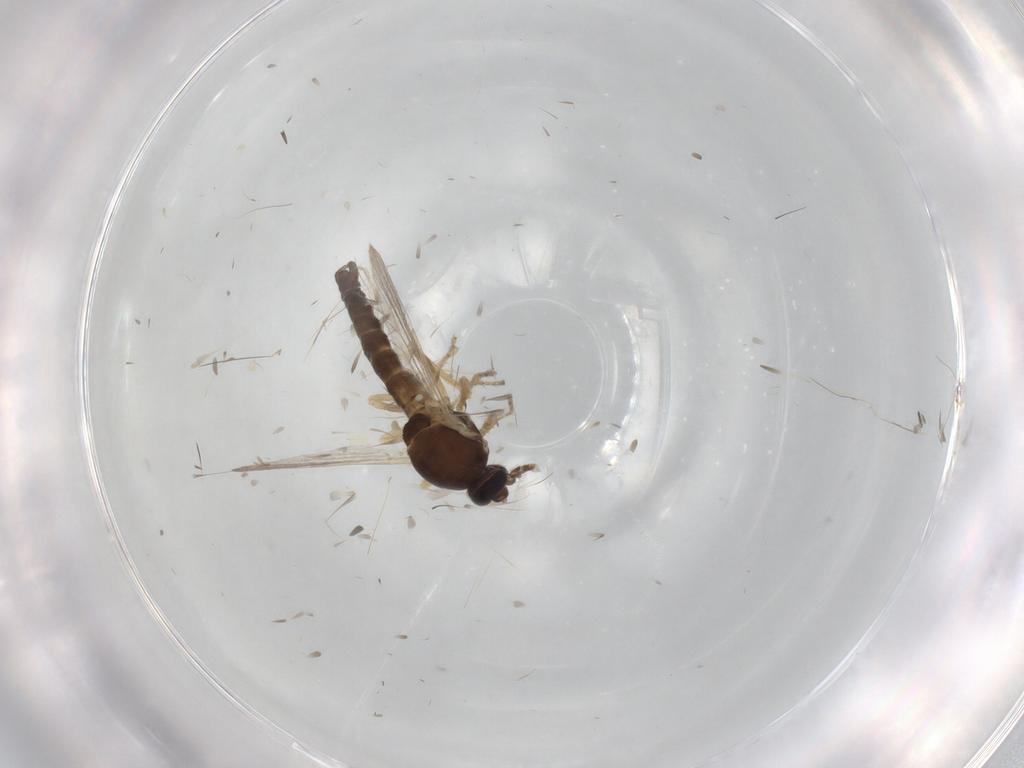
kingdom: Animalia
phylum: Arthropoda
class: Insecta
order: Diptera
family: Ceratopogonidae
